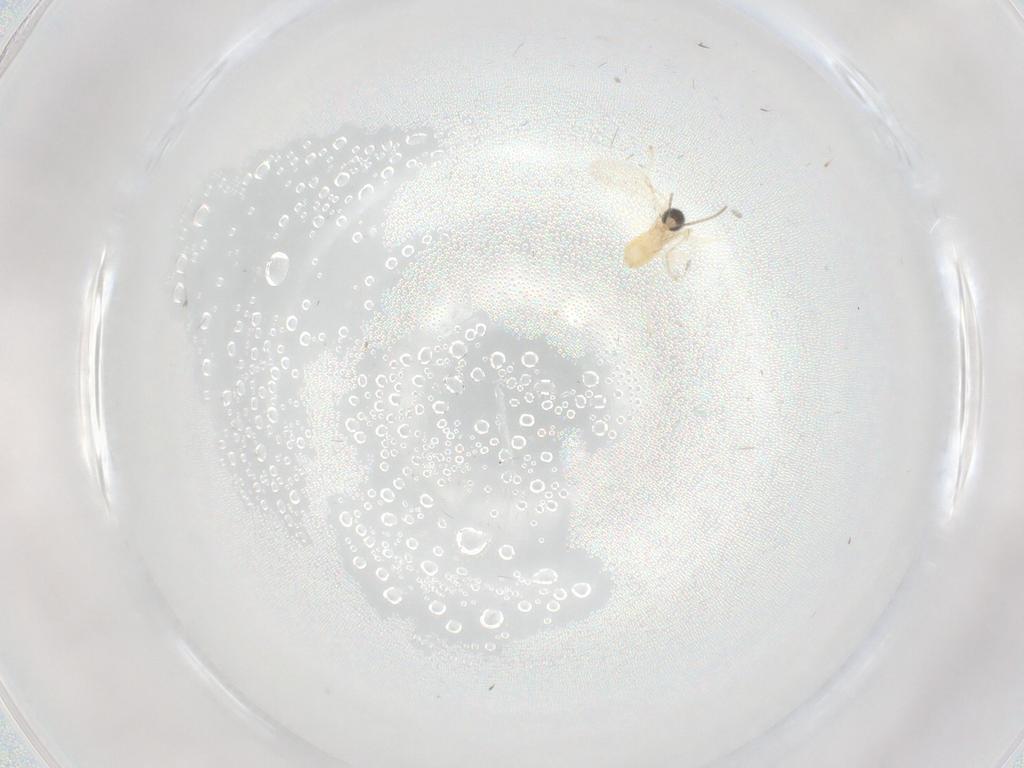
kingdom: Animalia
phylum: Arthropoda
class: Insecta
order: Diptera
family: Cecidomyiidae
